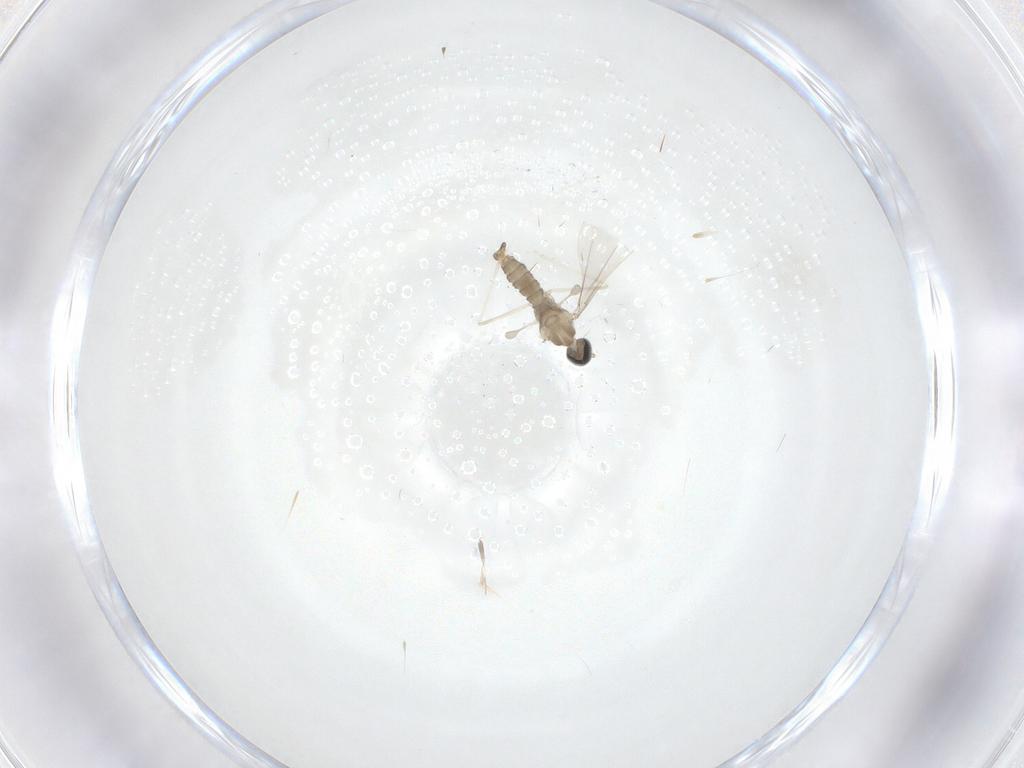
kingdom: Animalia
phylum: Arthropoda
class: Insecta
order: Diptera
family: Cecidomyiidae
